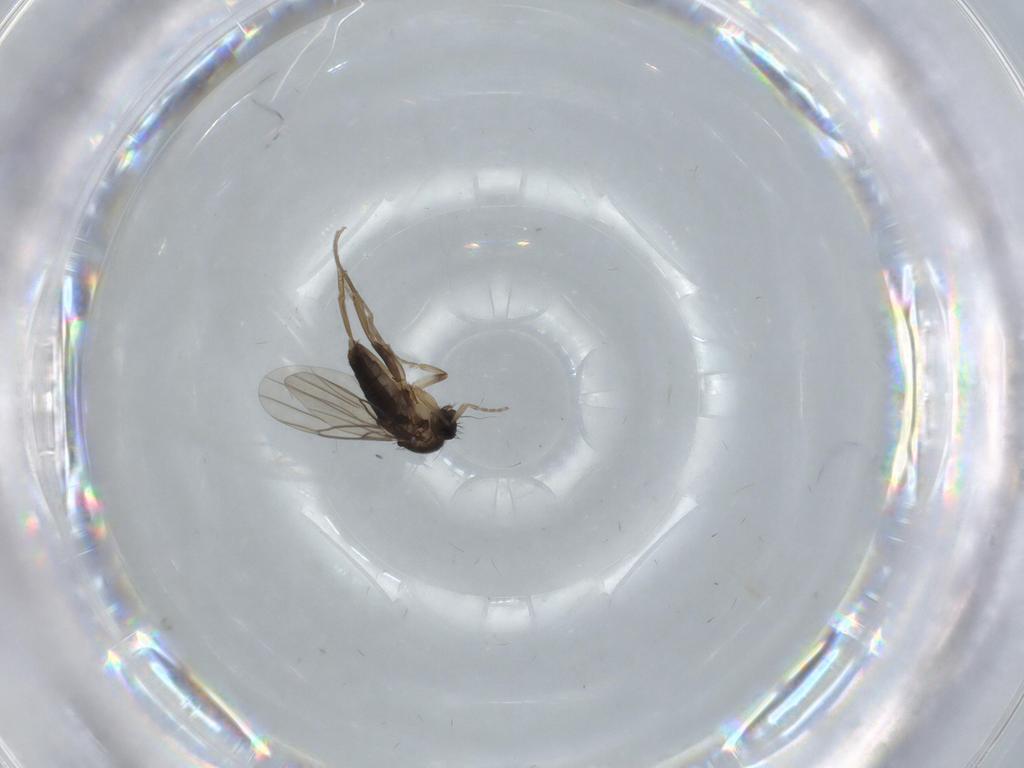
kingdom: Animalia
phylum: Arthropoda
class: Insecta
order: Diptera
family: Phoridae
